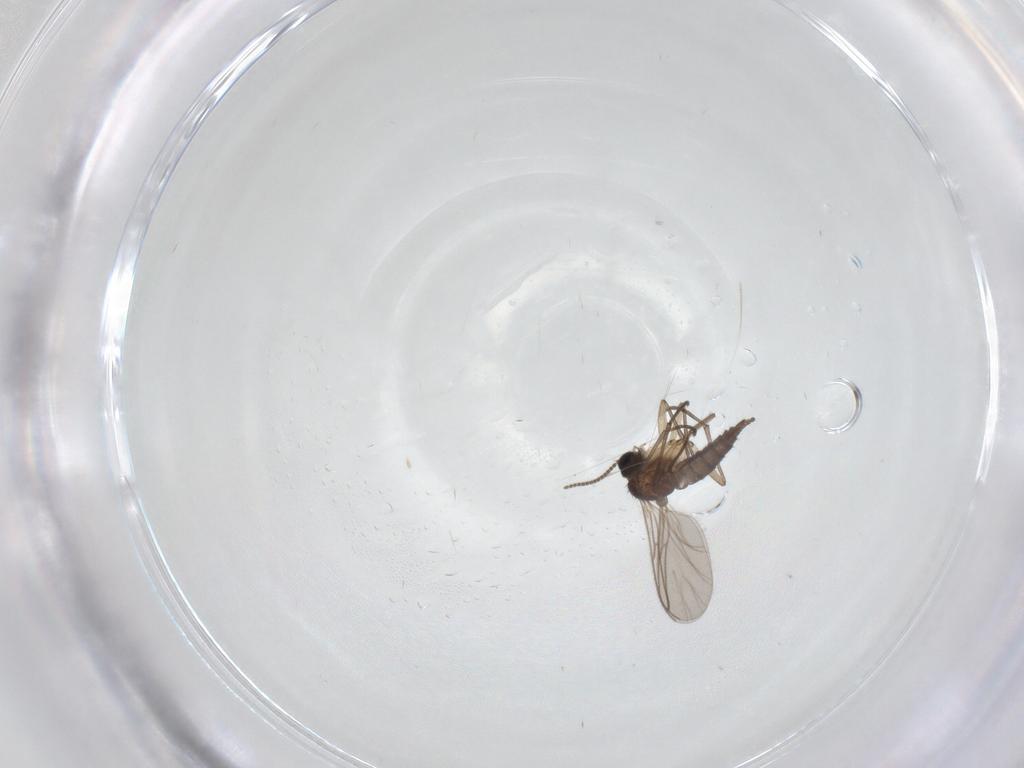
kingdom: Animalia
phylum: Arthropoda
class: Insecta
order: Diptera
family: Sciaridae
